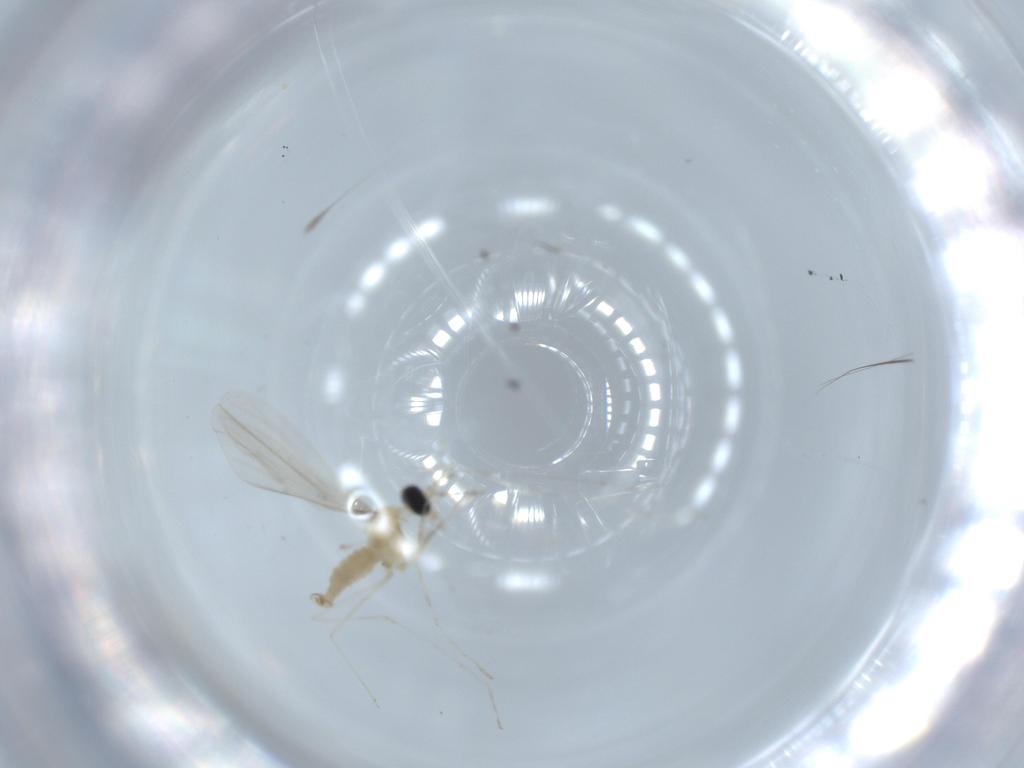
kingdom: Animalia
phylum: Arthropoda
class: Insecta
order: Diptera
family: Cecidomyiidae
